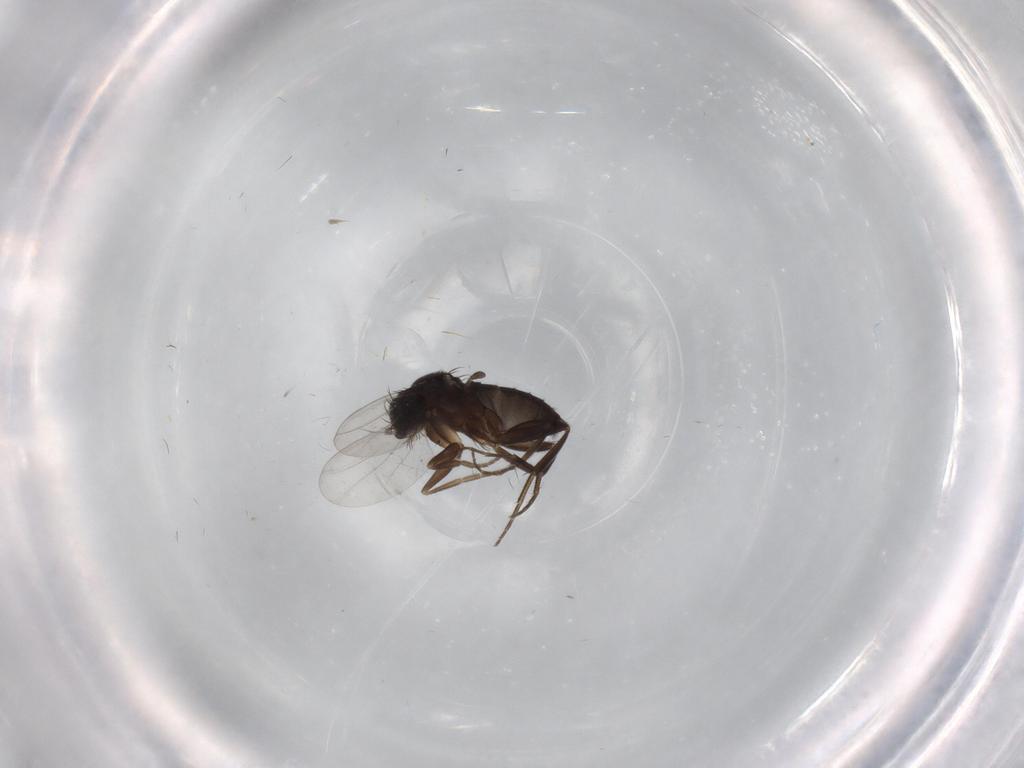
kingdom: Animalia
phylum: Arthropoda
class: Insecta
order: Diptera
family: Phoridae
